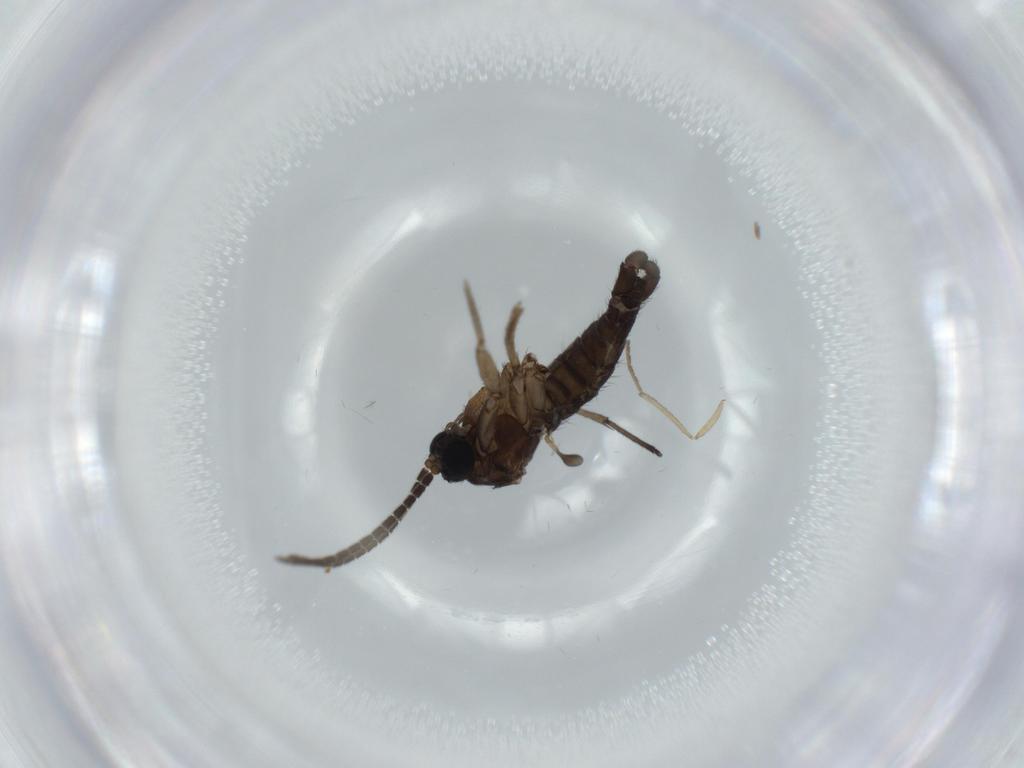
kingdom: Animalia
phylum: Arthropoda
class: Insecta
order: Diptera
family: Sciaridae
